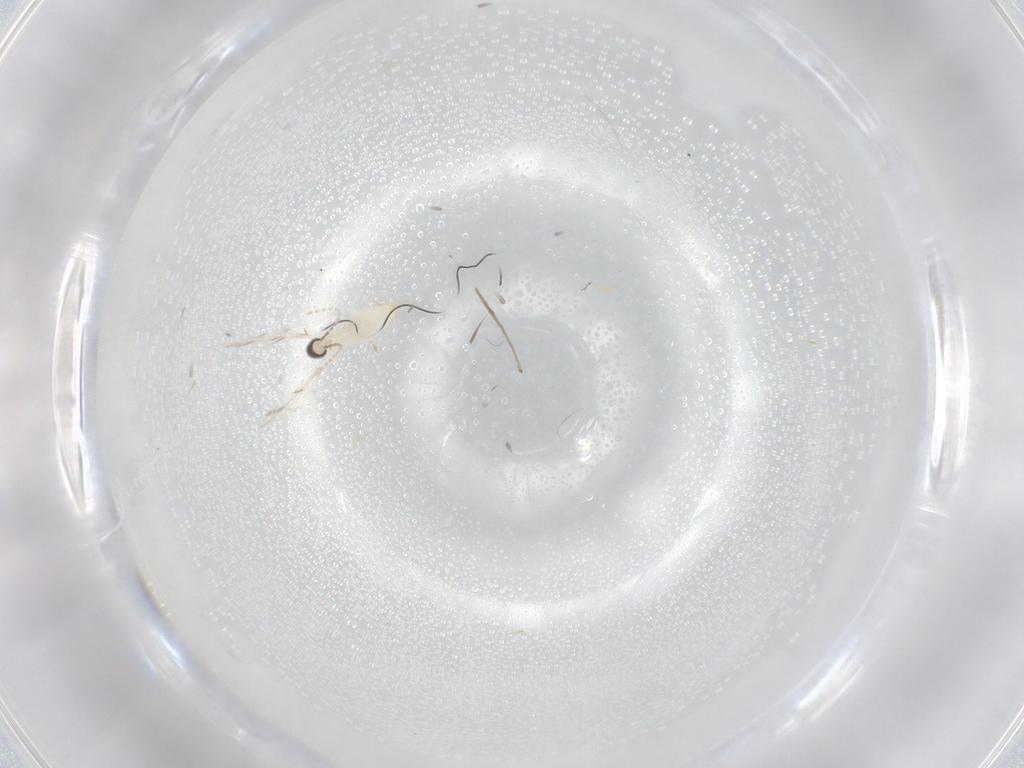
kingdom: Animalia
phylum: Arthropoda
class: Insecta
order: Diptera
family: Cecidomyiidae
